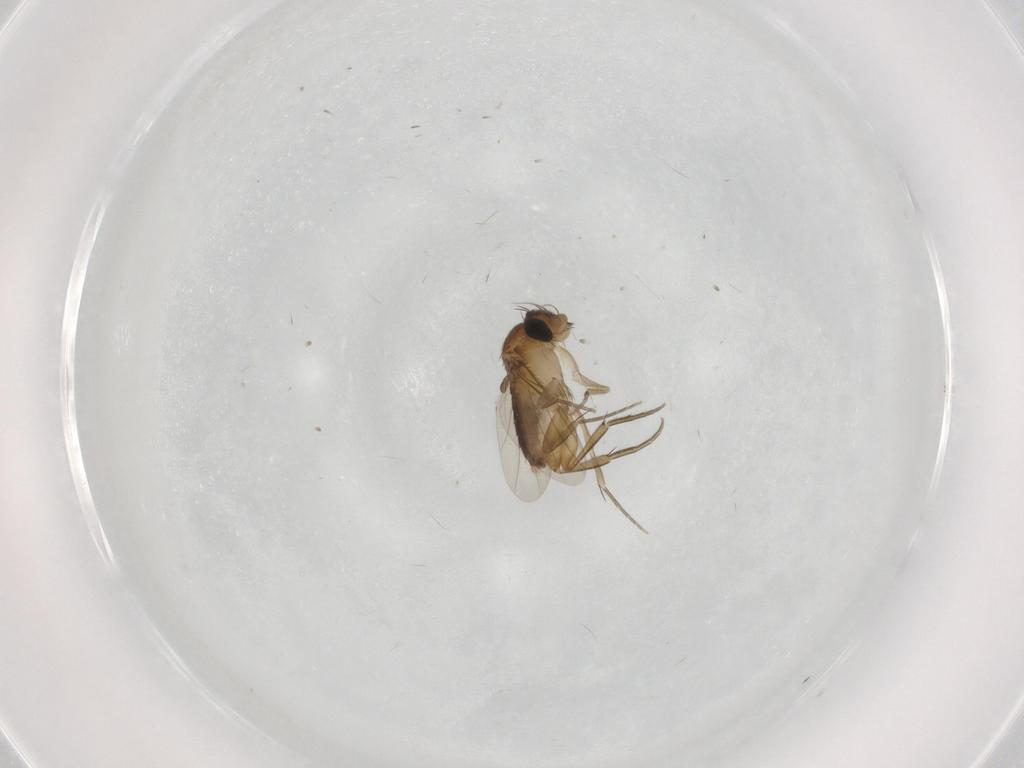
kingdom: Animalia
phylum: Arthropoda
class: Insecta
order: Diptera
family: Phoridae
